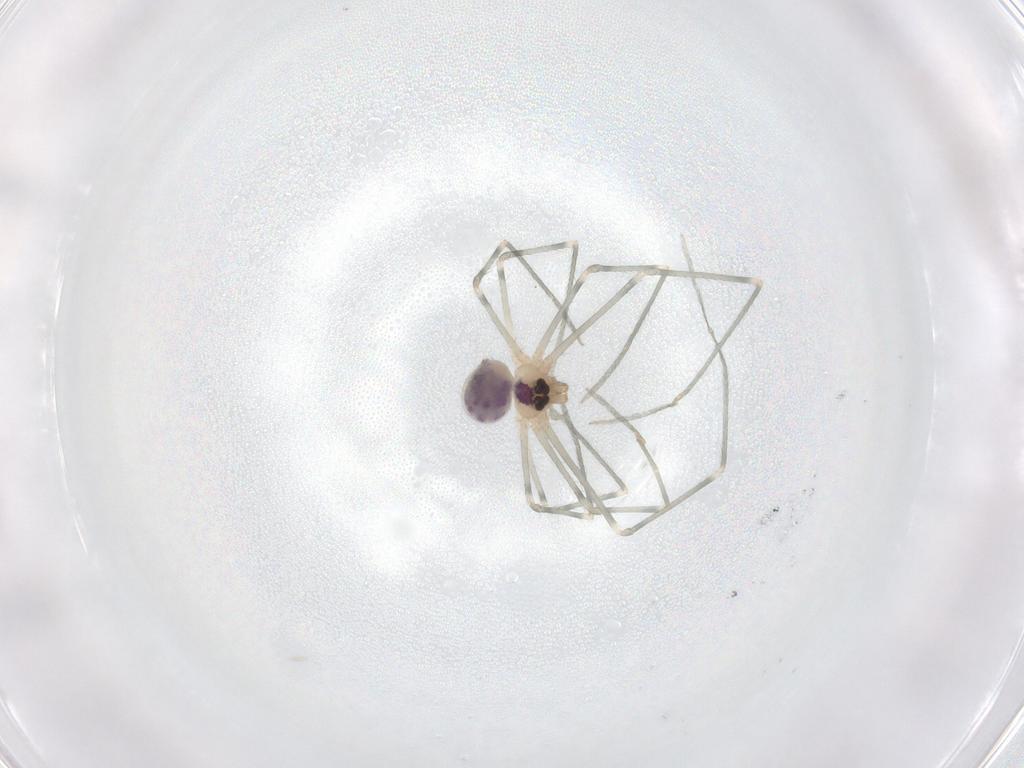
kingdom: Animalia
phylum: Arthropoda
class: Arachnida
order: Araneae
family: Pholcidae
